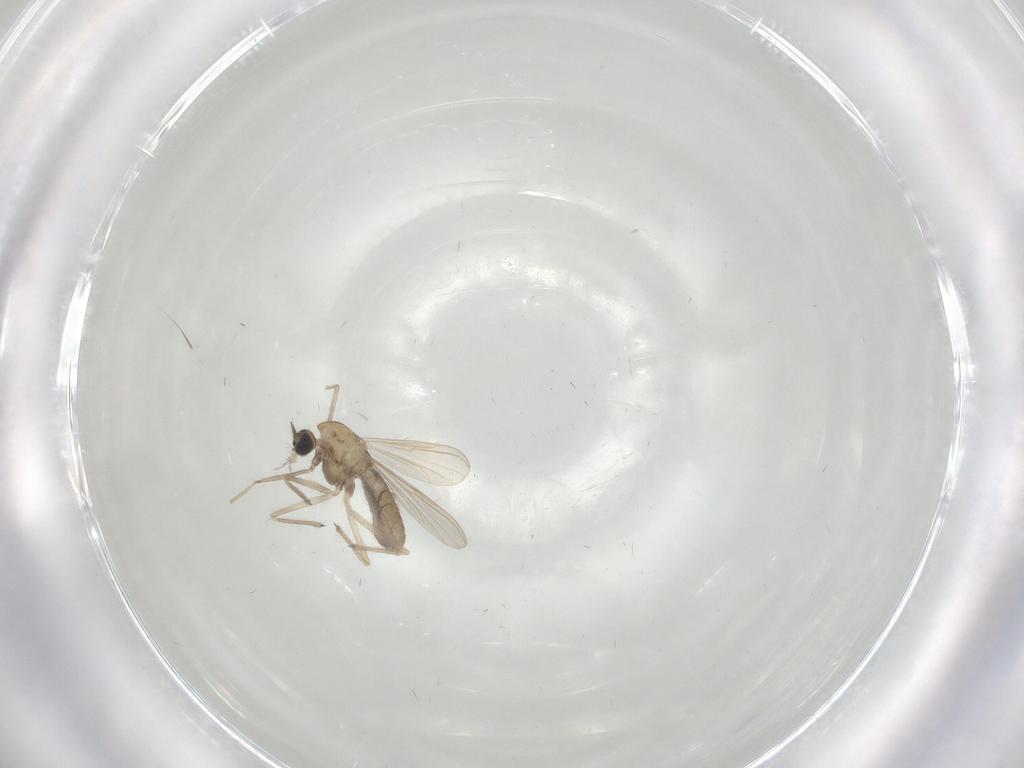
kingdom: Animalia
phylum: Arthropoda
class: Insecta
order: Diptera
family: Chironomidae
